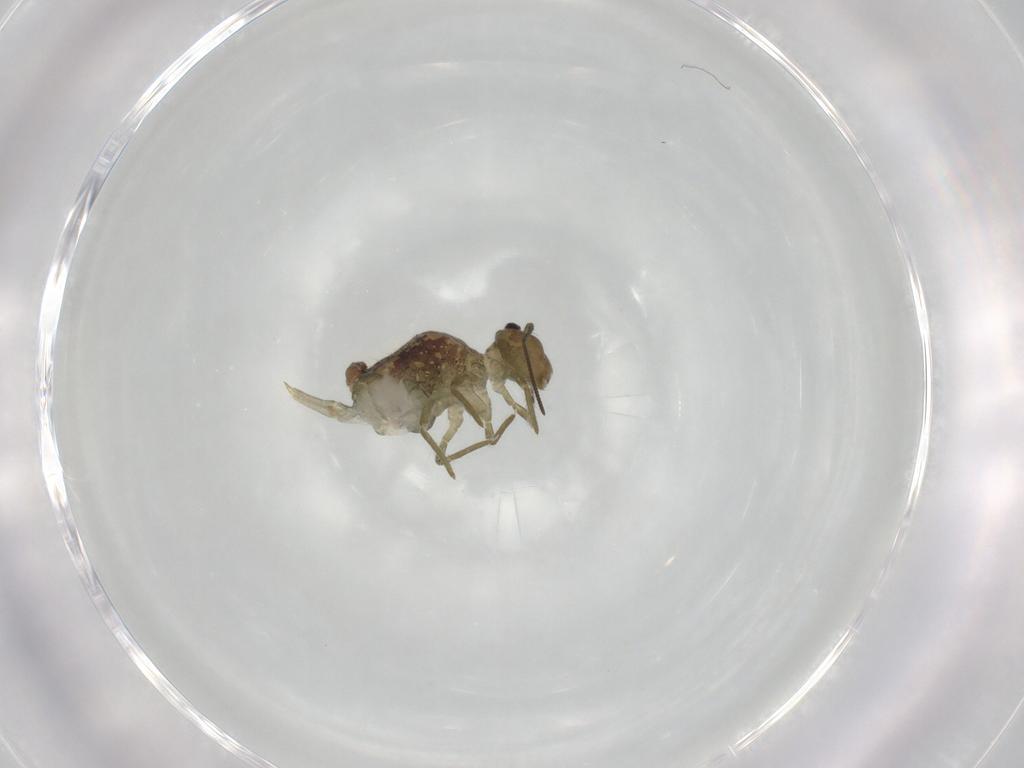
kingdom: Animalia
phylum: Arthropoda
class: Collembola
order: Symphypleona
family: Sminthuridae
